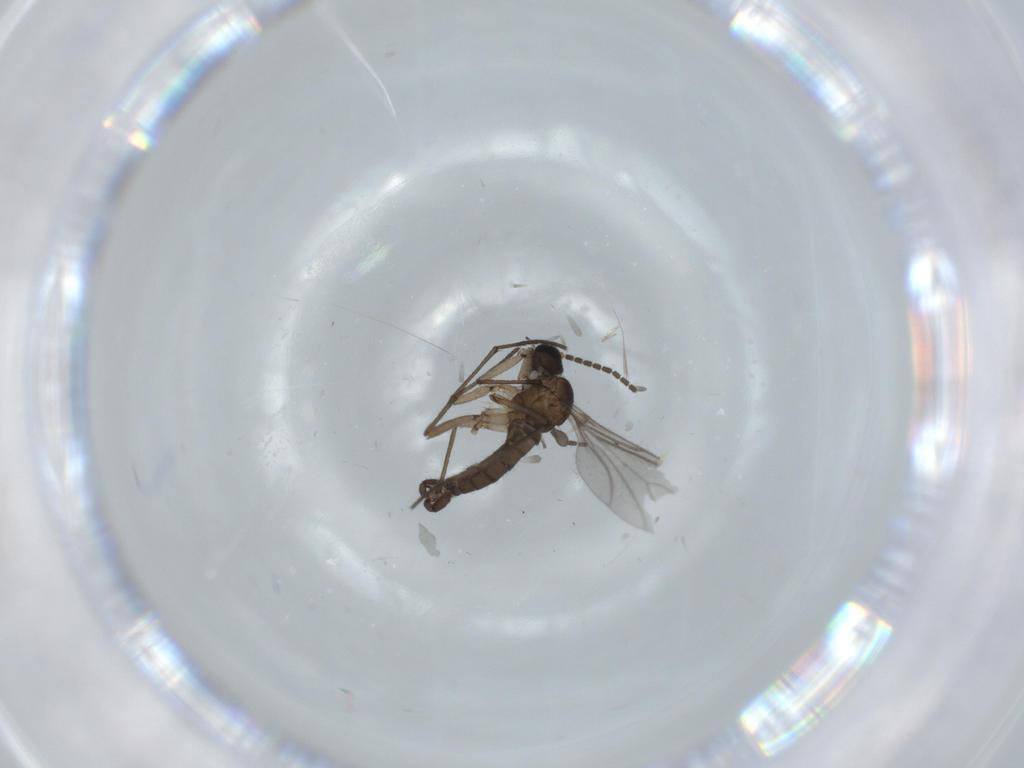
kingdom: Animalia
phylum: Arthropoda
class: Insecta
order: Diptera
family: Sciaridae
